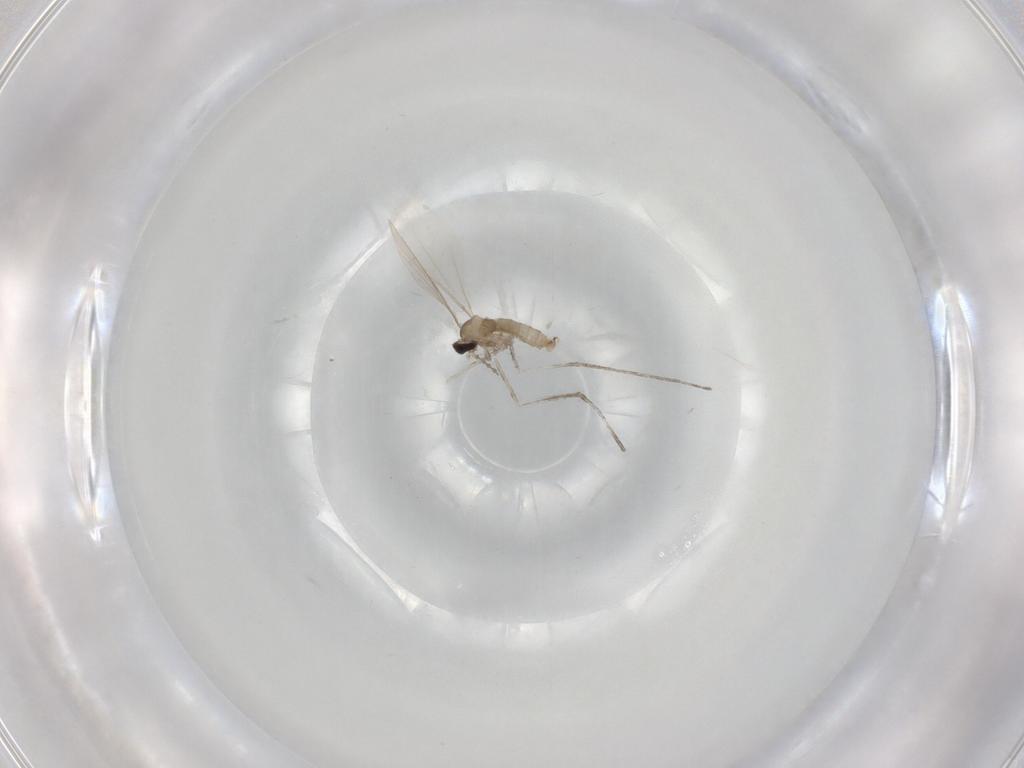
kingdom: Animalia
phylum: Arthropoda
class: Insecta
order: Diptera
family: Cecidomyiidae
